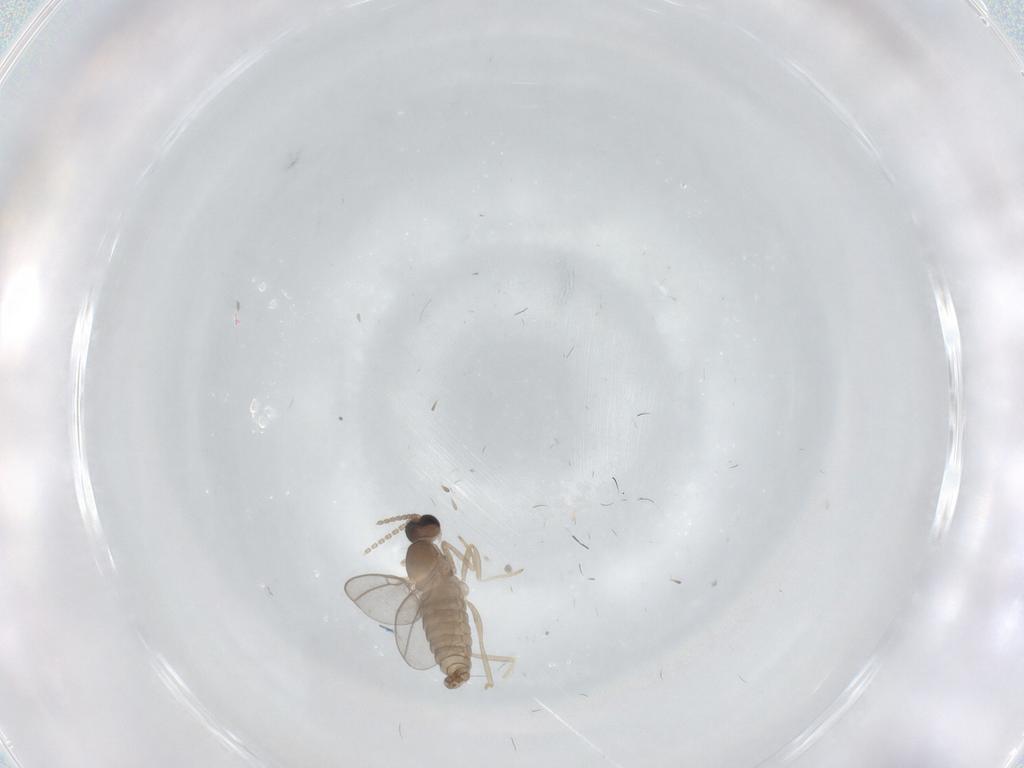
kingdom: Animalia
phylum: Arthropoda
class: Insecta
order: Diptera
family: Cecidomyiidae
